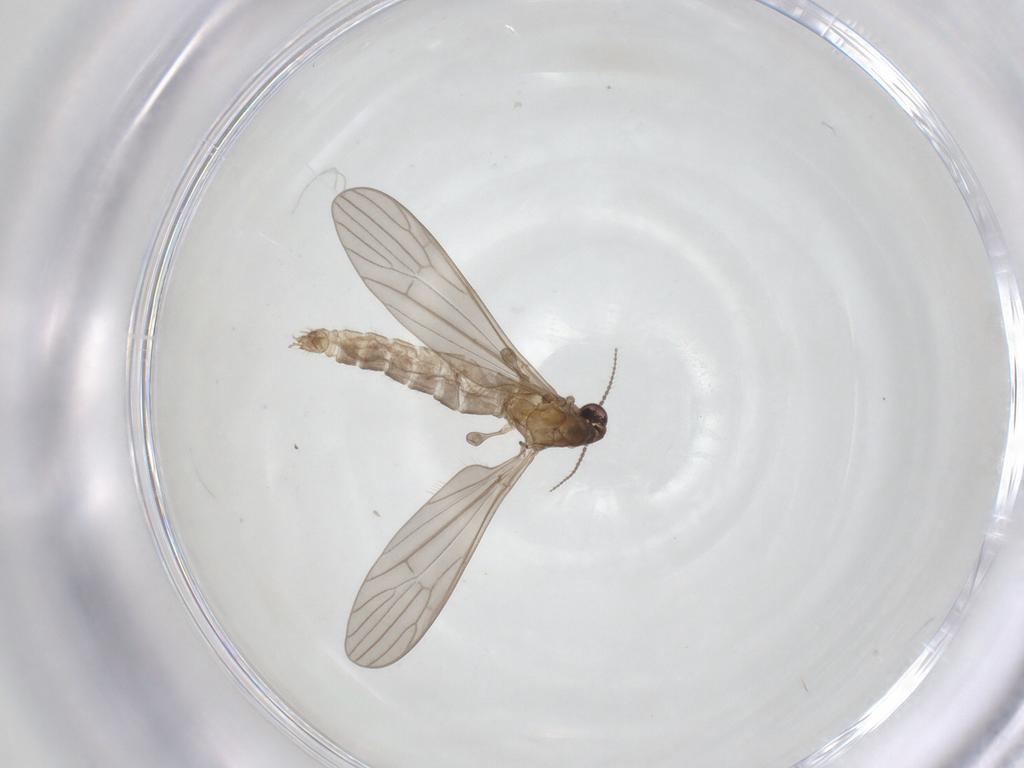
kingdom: Animalia
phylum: Arthropoda
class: Insecta
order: Diptera
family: Cecidomyiidae
